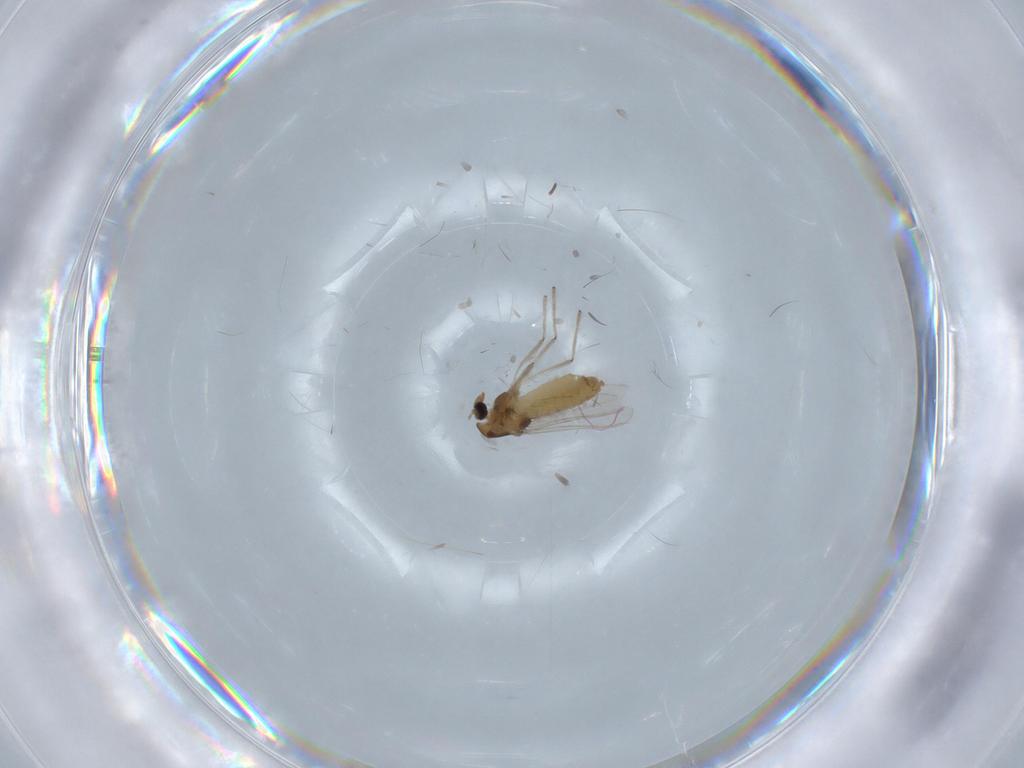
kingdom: Animalia
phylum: Arthropoda
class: Insecta
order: Diptera
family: Chironomidae
